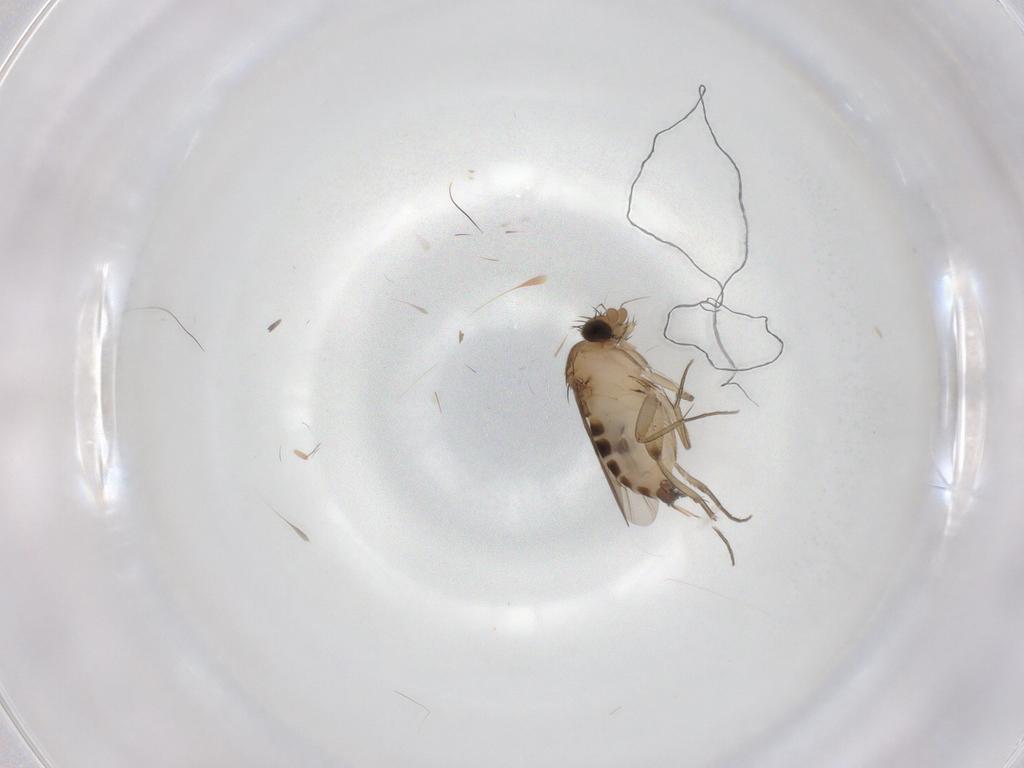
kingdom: Animalia
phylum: Arthropoda
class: Insecta
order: Diptera
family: Phoridae
